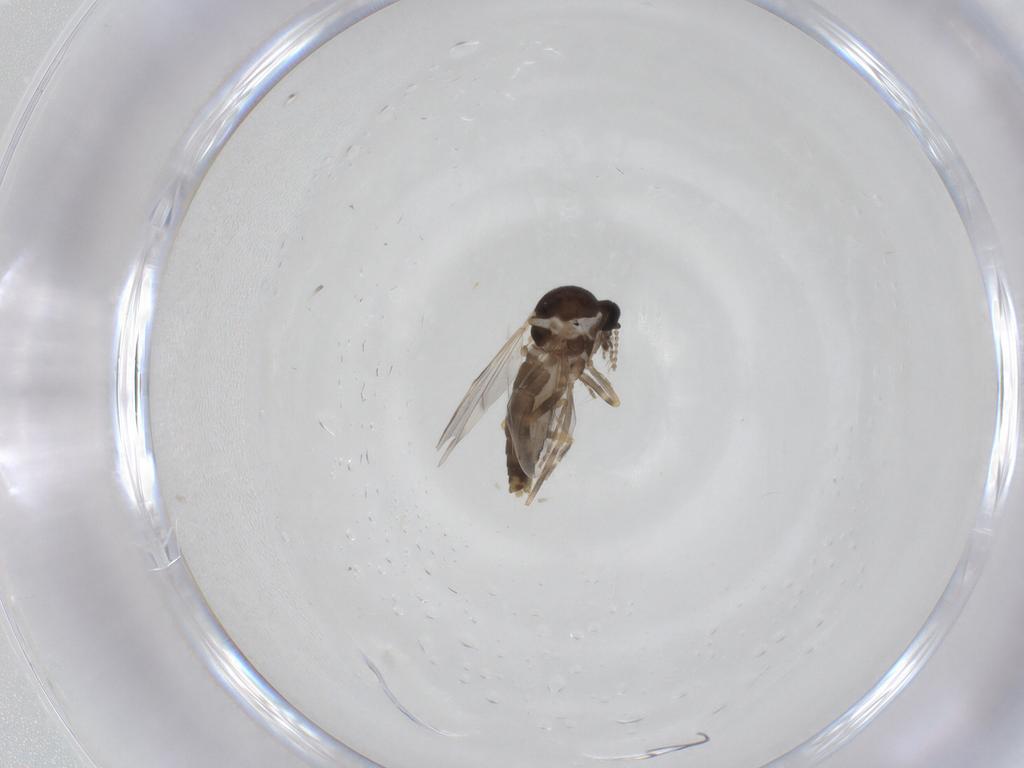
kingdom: Animalia
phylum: Arthropoda
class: Insecta
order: Diptera
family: Ceratopogonidae
